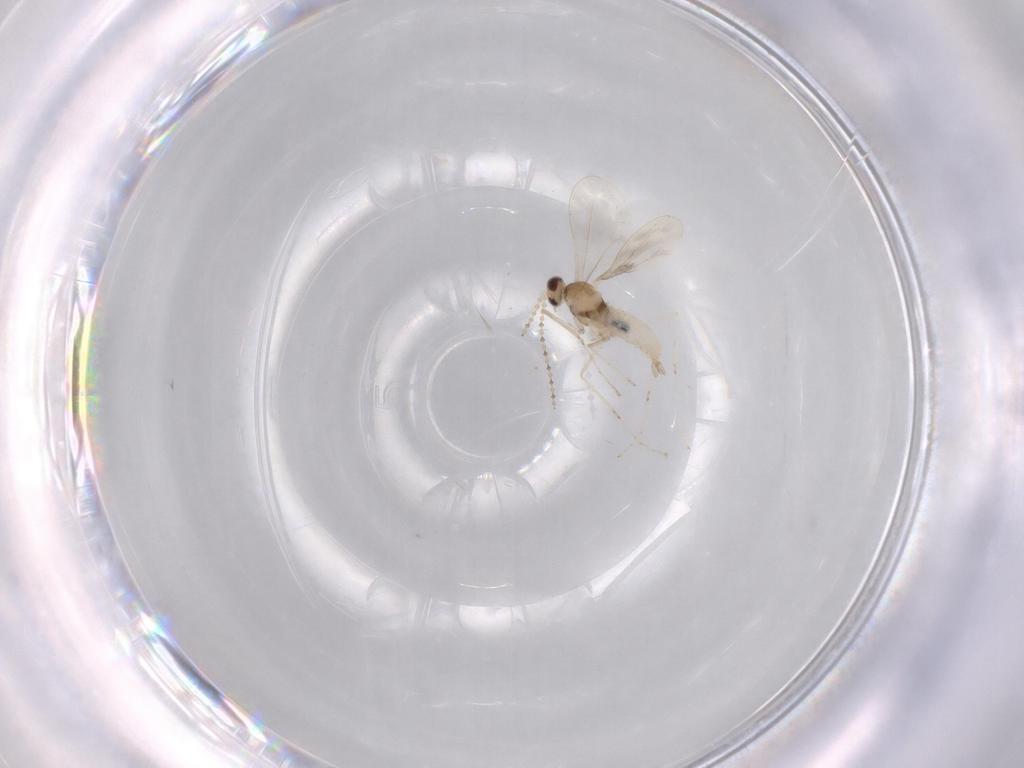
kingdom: Animalia
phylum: Arthropoda
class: Insecta
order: Diptera
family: Cecidomyiidae
